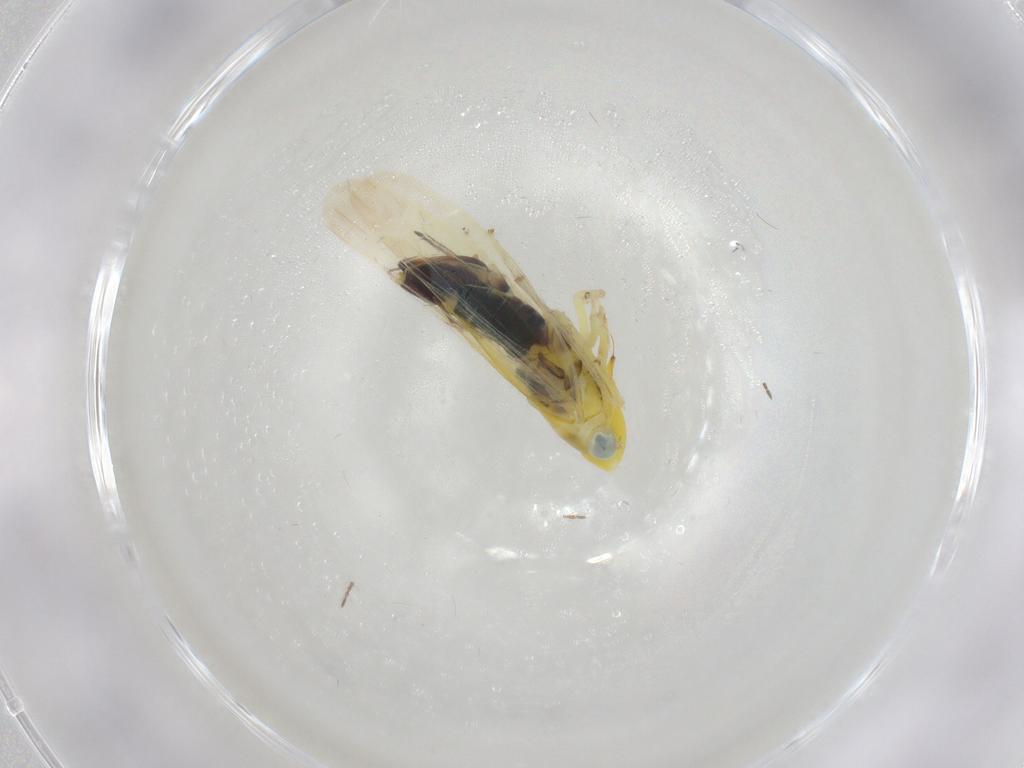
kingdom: Animalia
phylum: Arthropoda
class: Insecta
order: Hemiptera
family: Cicadellidae
